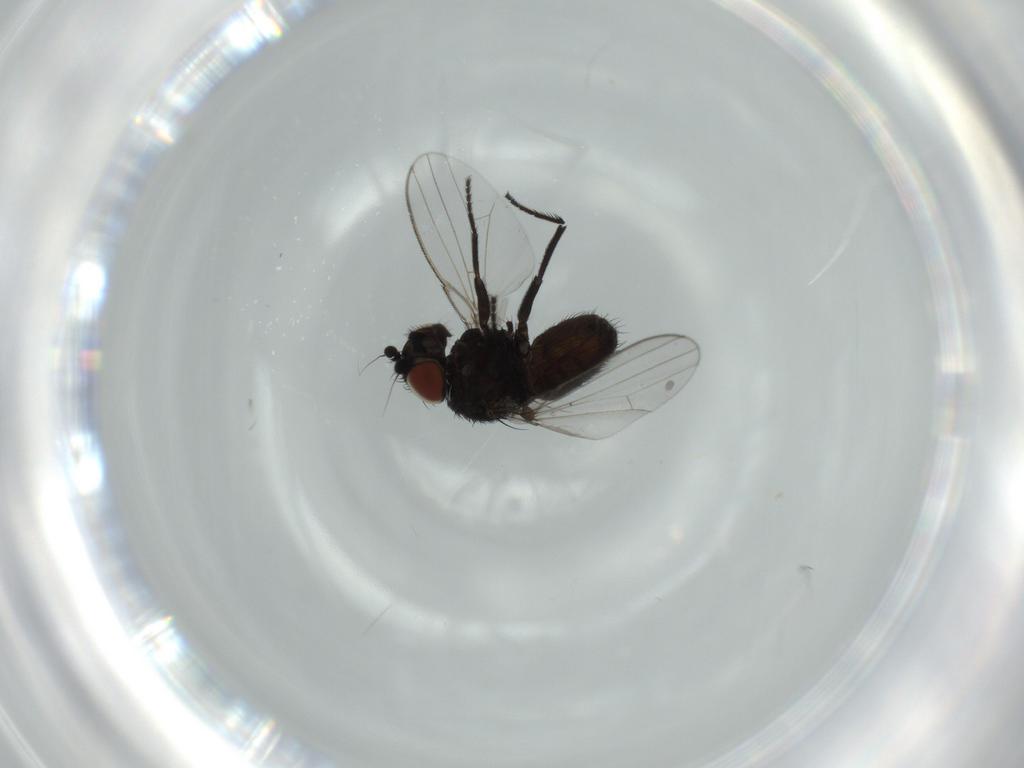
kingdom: Animalia
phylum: Arthropoda
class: Insecta
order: Diptera
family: Milichiidae
